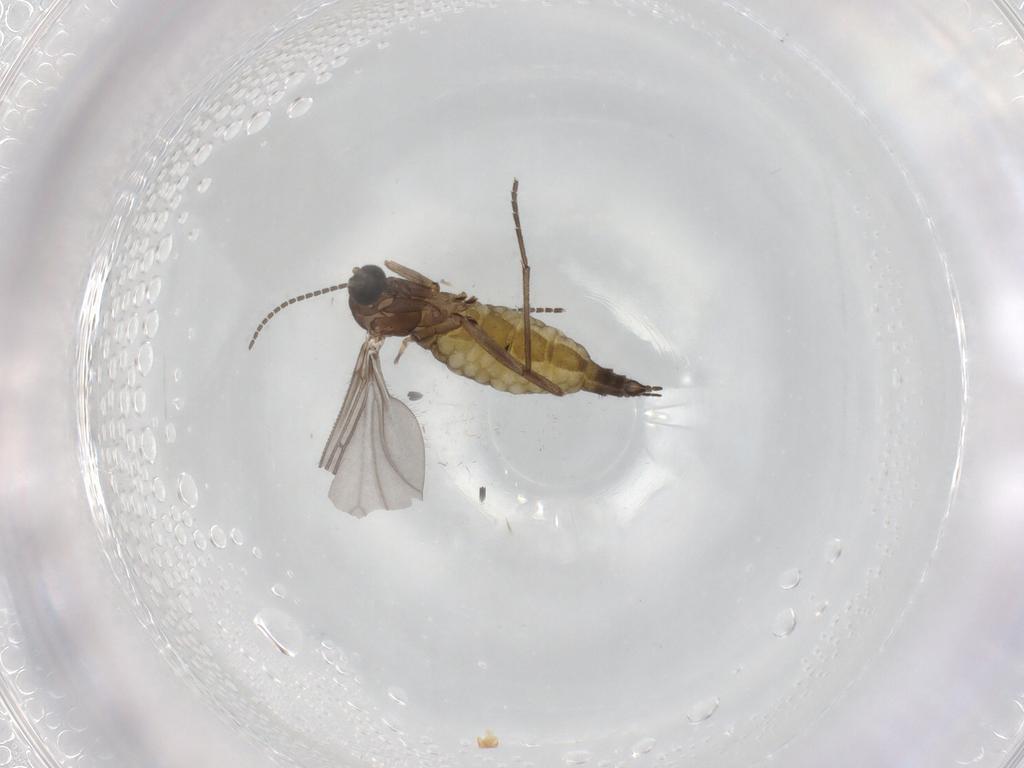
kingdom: Animalia
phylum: Arthropoda
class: Insecta
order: Diptera
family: Sciaridae
